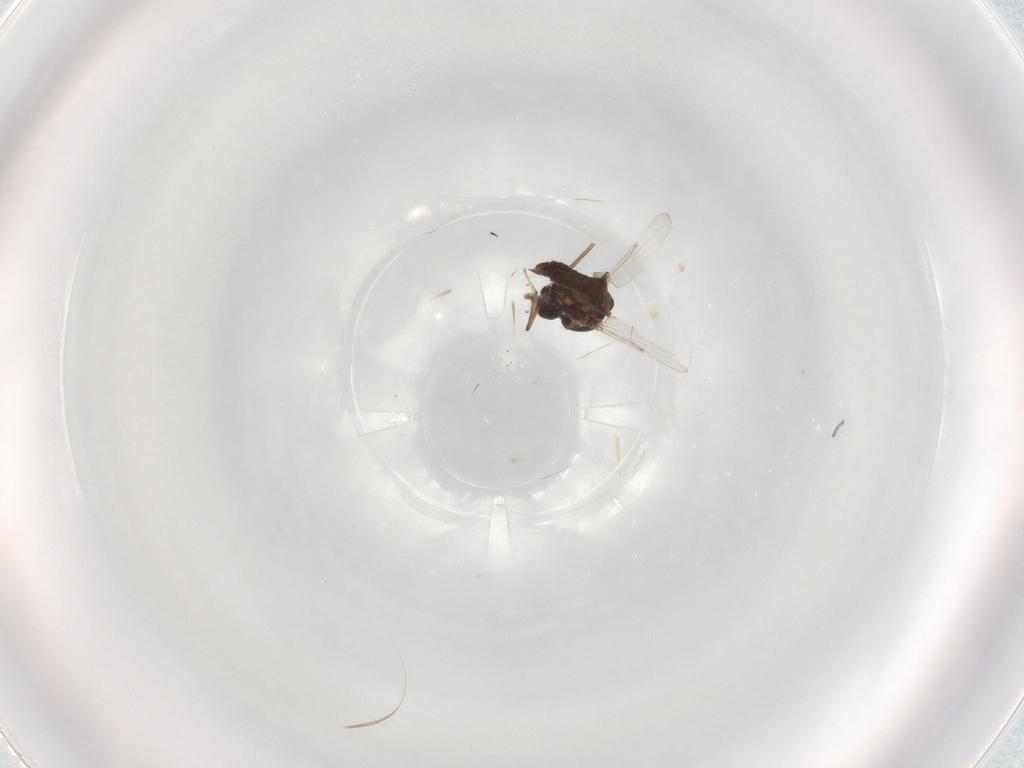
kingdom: Animalia
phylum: Arthropoda
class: Insecta
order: Diptera
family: Ceratopogonidae
